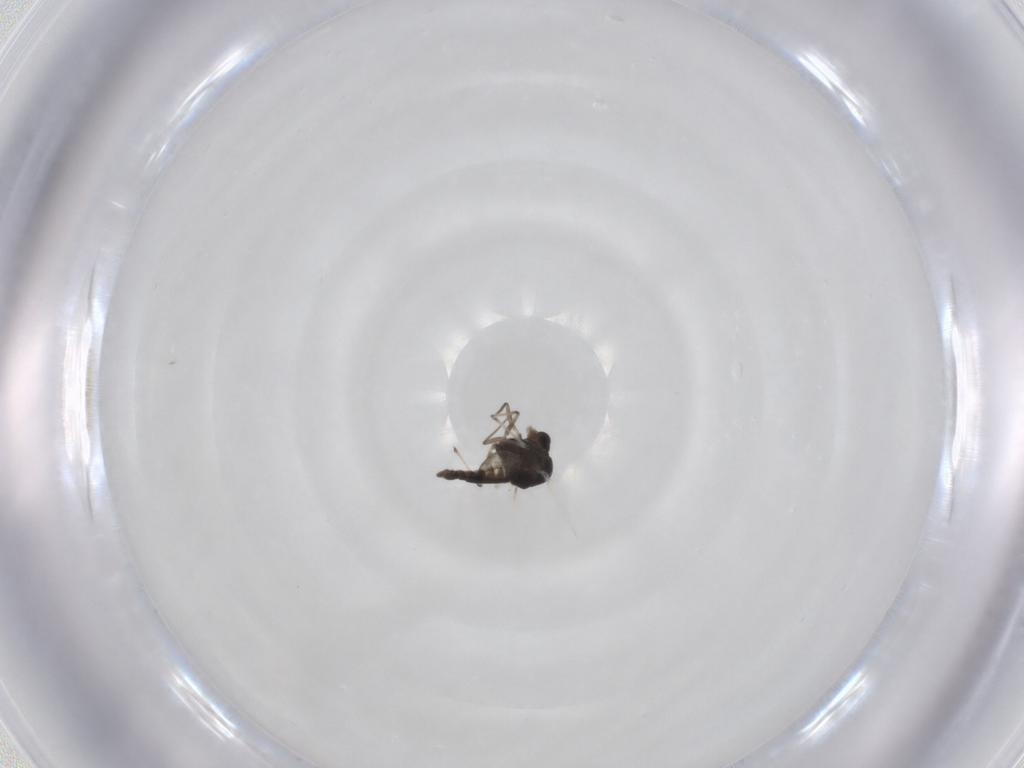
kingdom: Animalia
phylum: Arthropoda
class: Insecta
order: Diptera
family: Chironomidae
